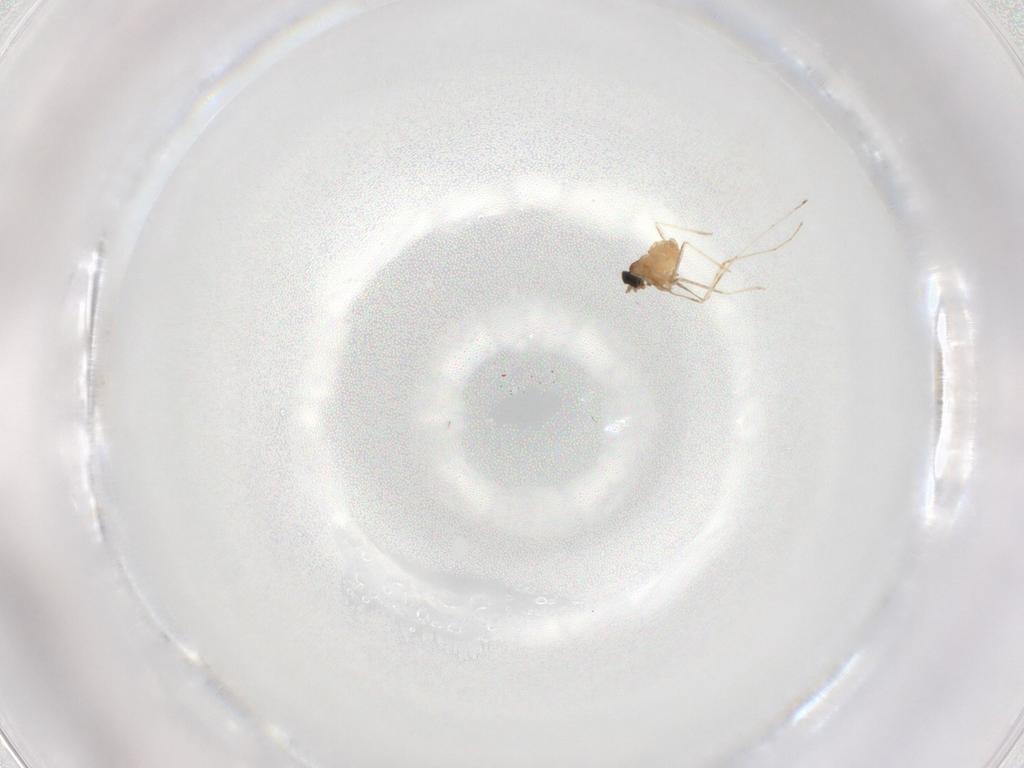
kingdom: Animalia
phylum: Arthropoda
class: Insecta
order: Diptera
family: Cecidomyiidae
